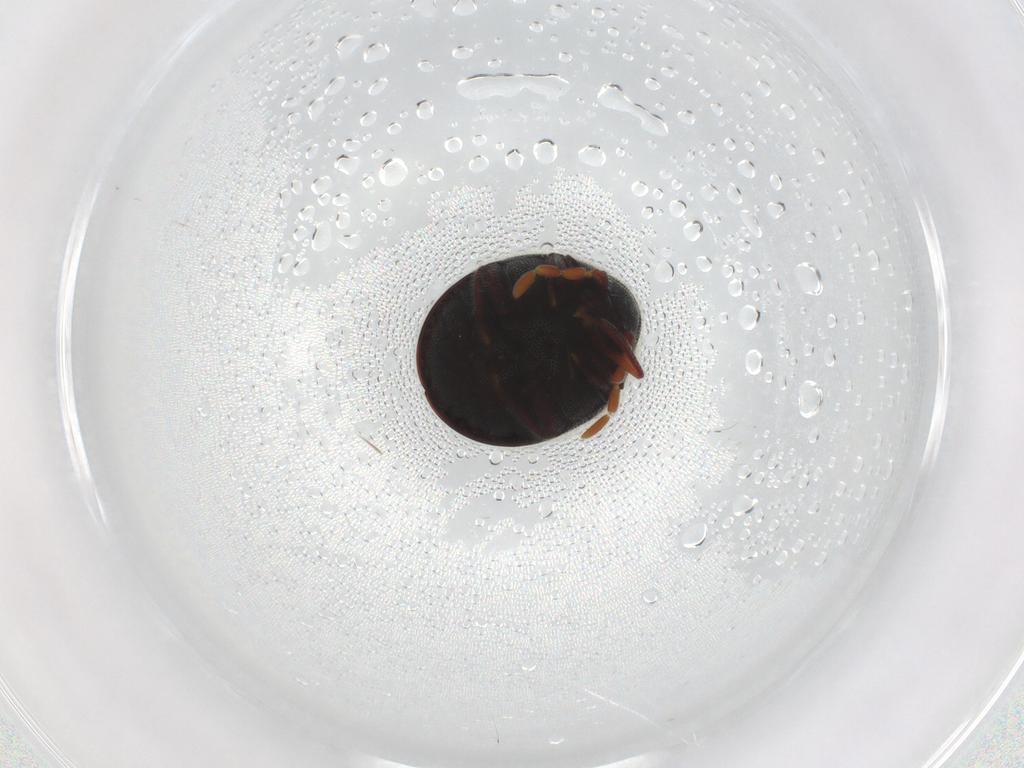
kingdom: Animalia
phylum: Arthropoda
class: Insecta
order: Coleoptera
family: Ptinidae
